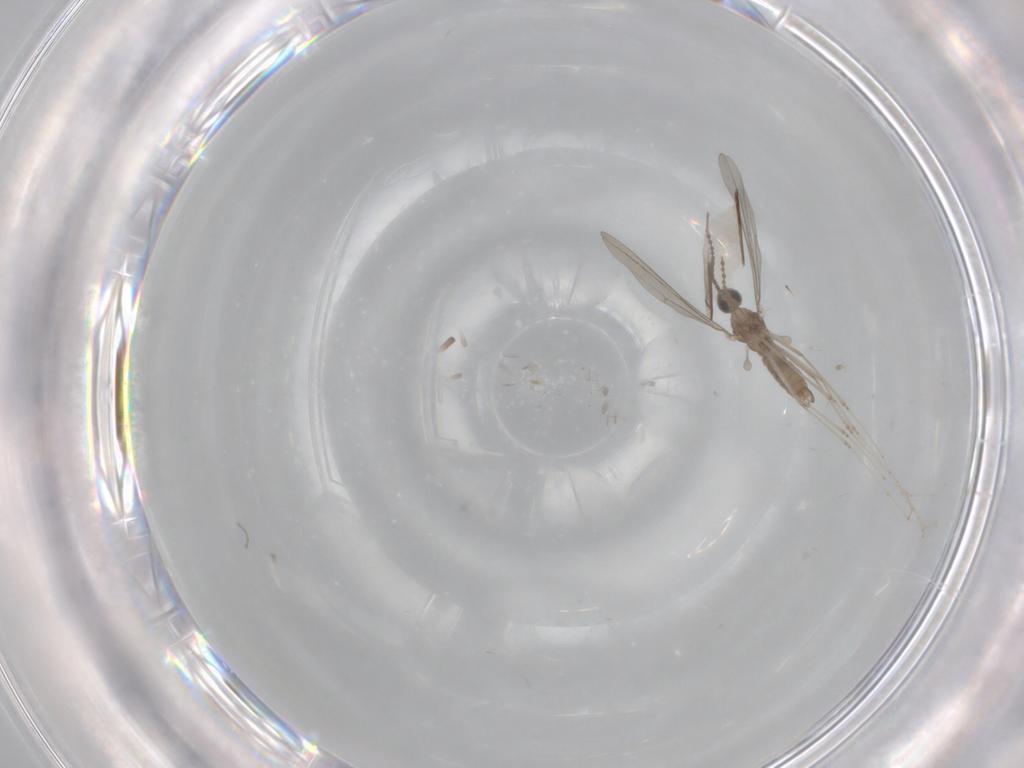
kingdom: Animalia
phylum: Arthropoda
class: Insecta
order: Diptera
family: Cecidomyiidae
